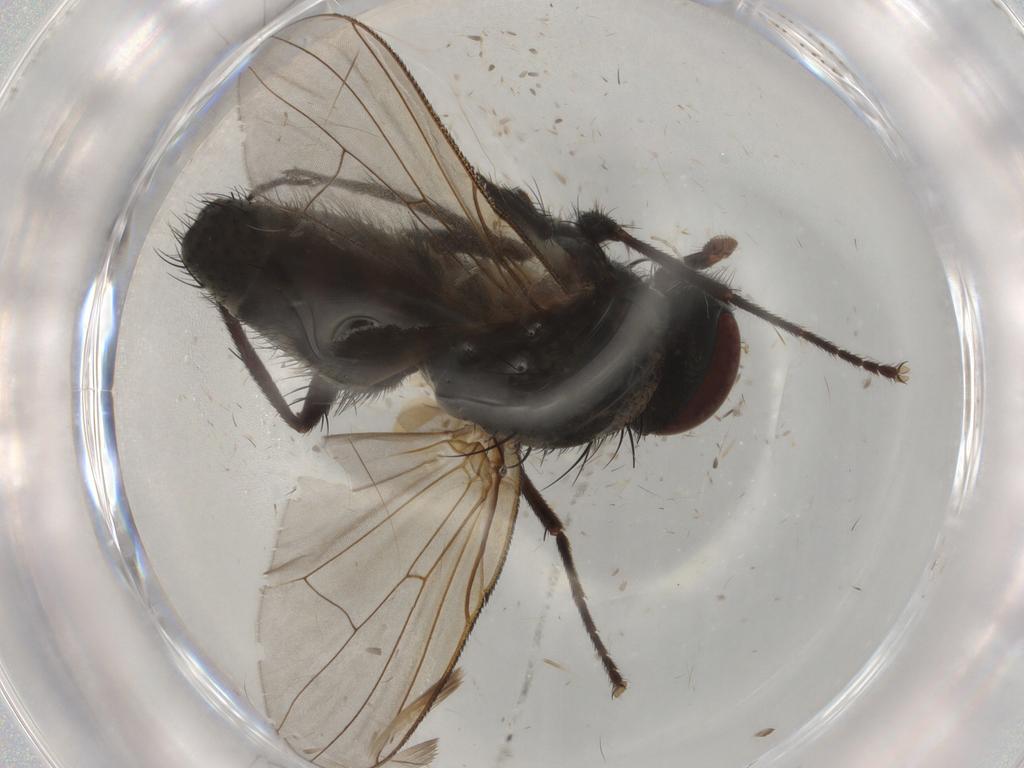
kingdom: Animalia
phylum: Arthropoda
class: Insecta
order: Diptera
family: Muscidae
